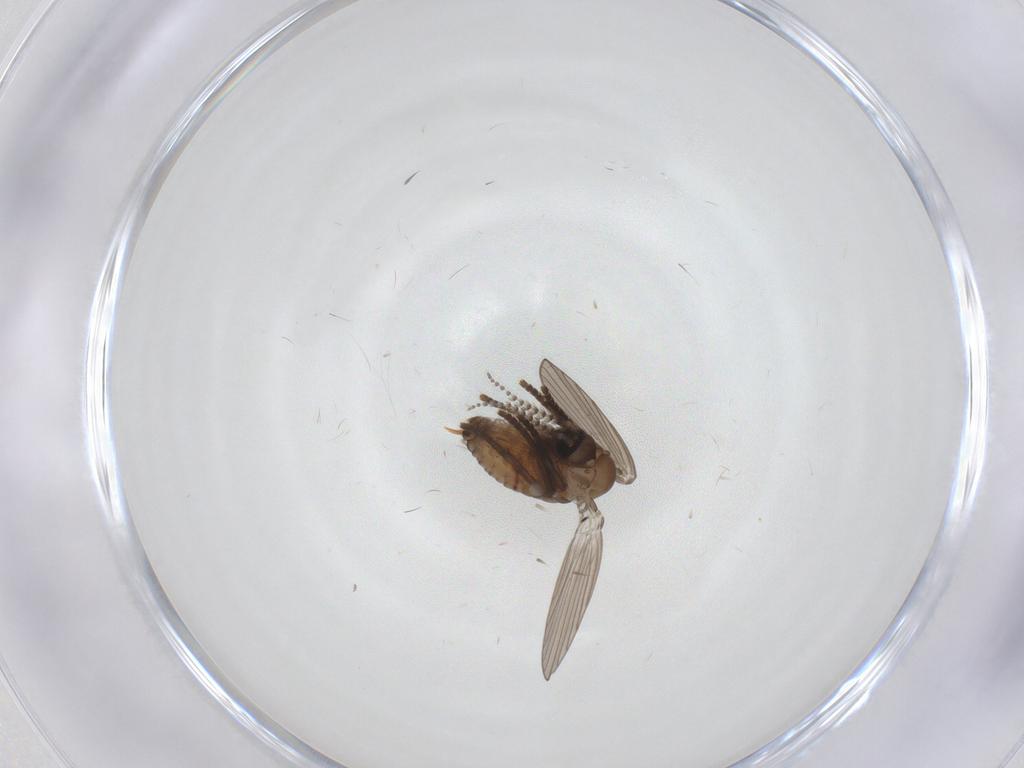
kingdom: Animalia
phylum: Arthropoda
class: Insecta
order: Diptera
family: Psychodidae
